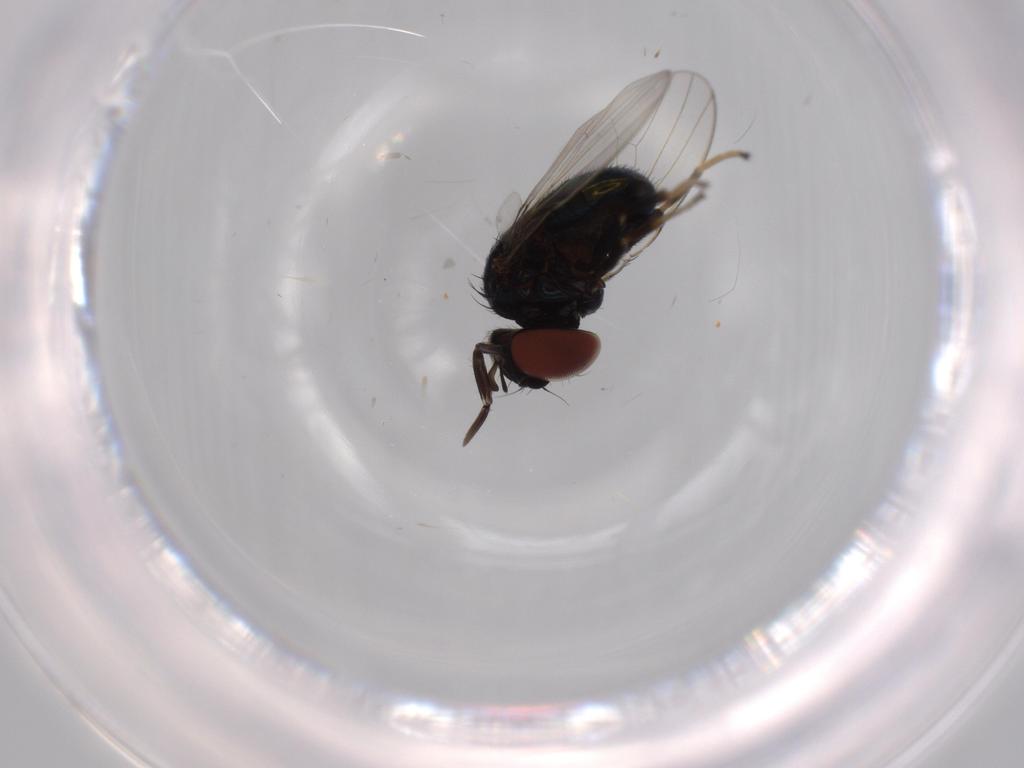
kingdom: Animalia
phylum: Arthropoda
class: Insecta
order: Diptera
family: Milichiidae
